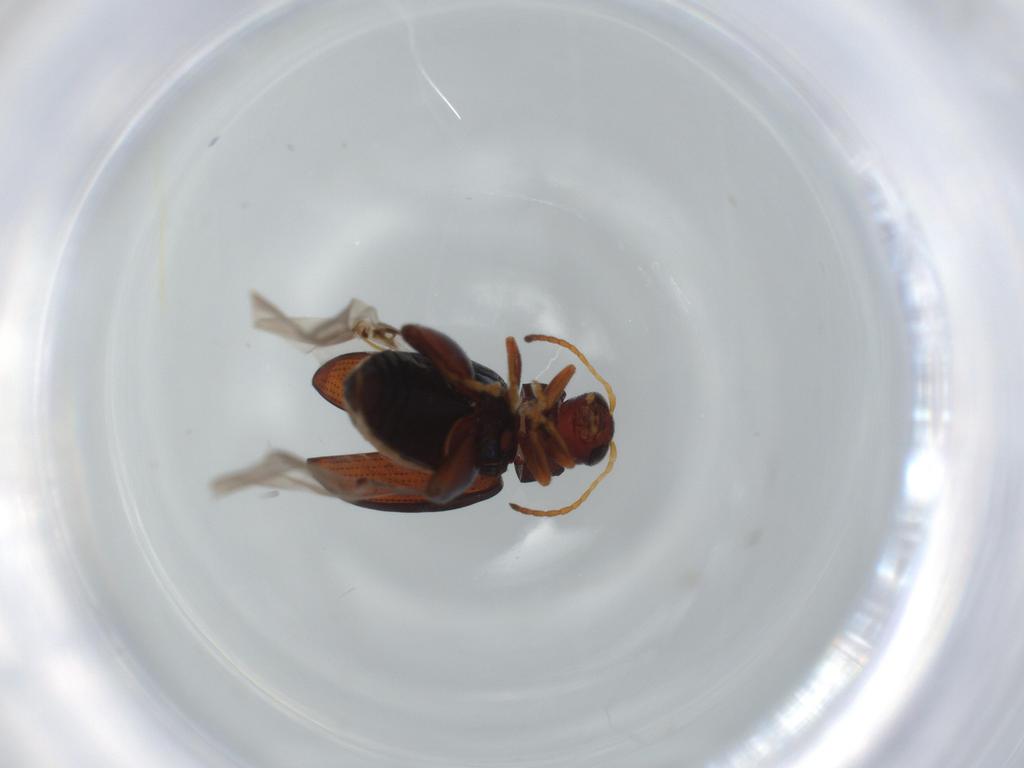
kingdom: Animalia
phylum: Arthropoda
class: Insecta
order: Coleoptera
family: Chrysomelidae
